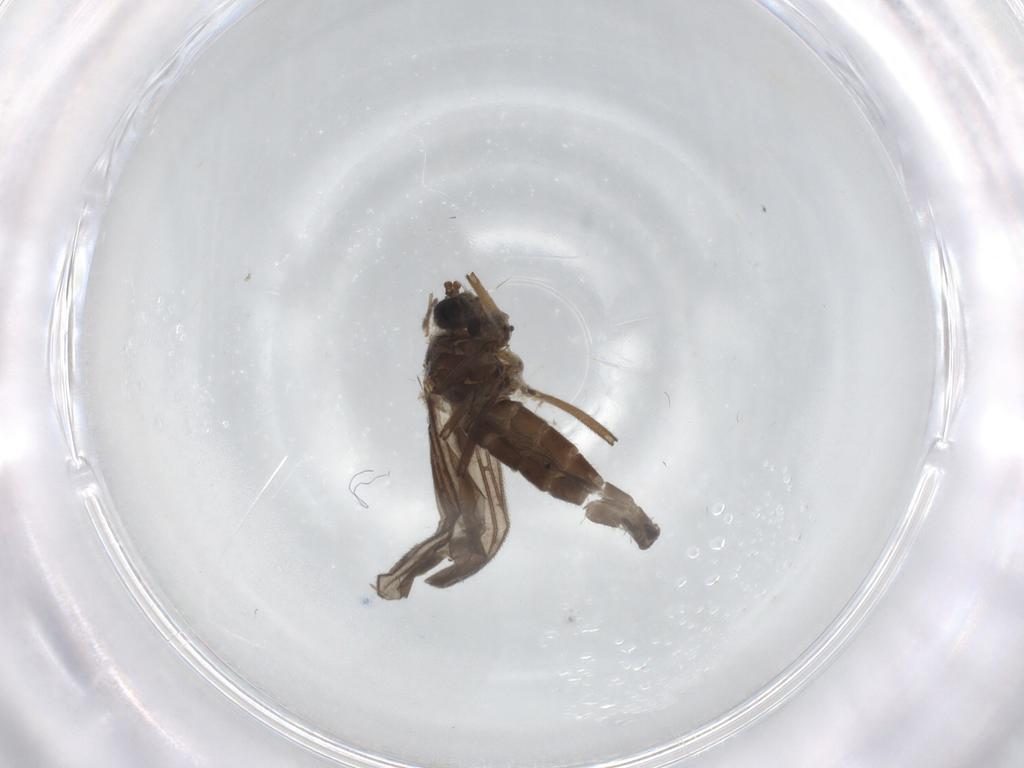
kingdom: Animalia
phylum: Arthropoda
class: Insecta
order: Diptera
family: Sciaridae
